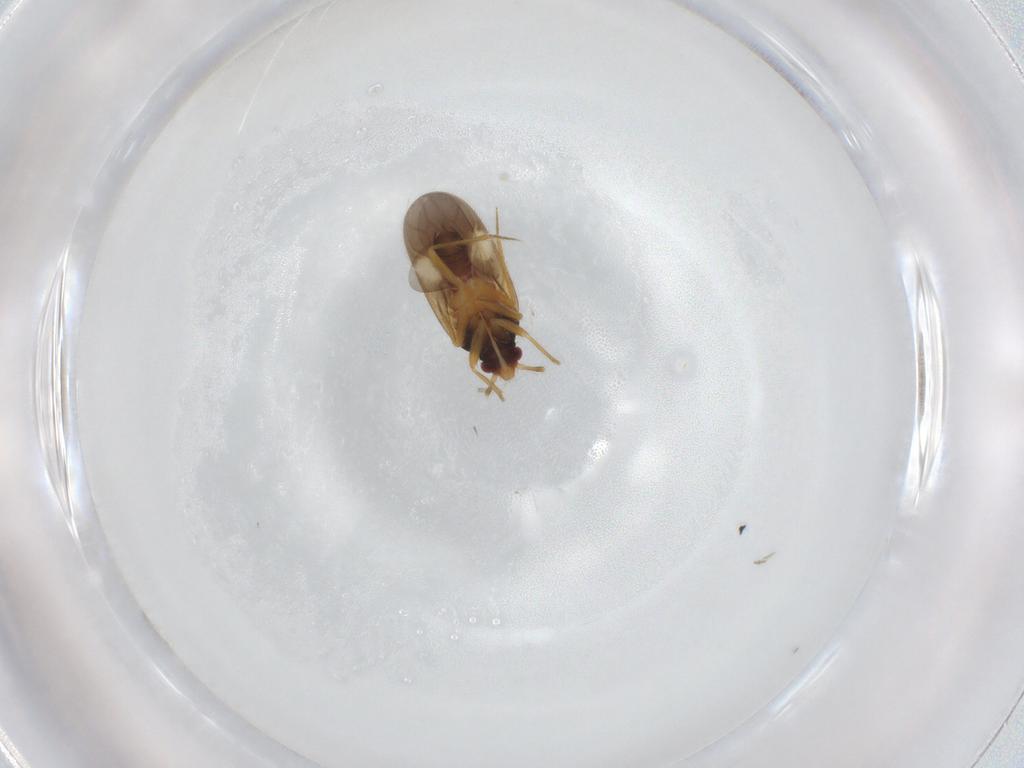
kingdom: Animalia
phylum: Arthropoda
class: Insecta
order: Hemiptera
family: Ceratocombidae
